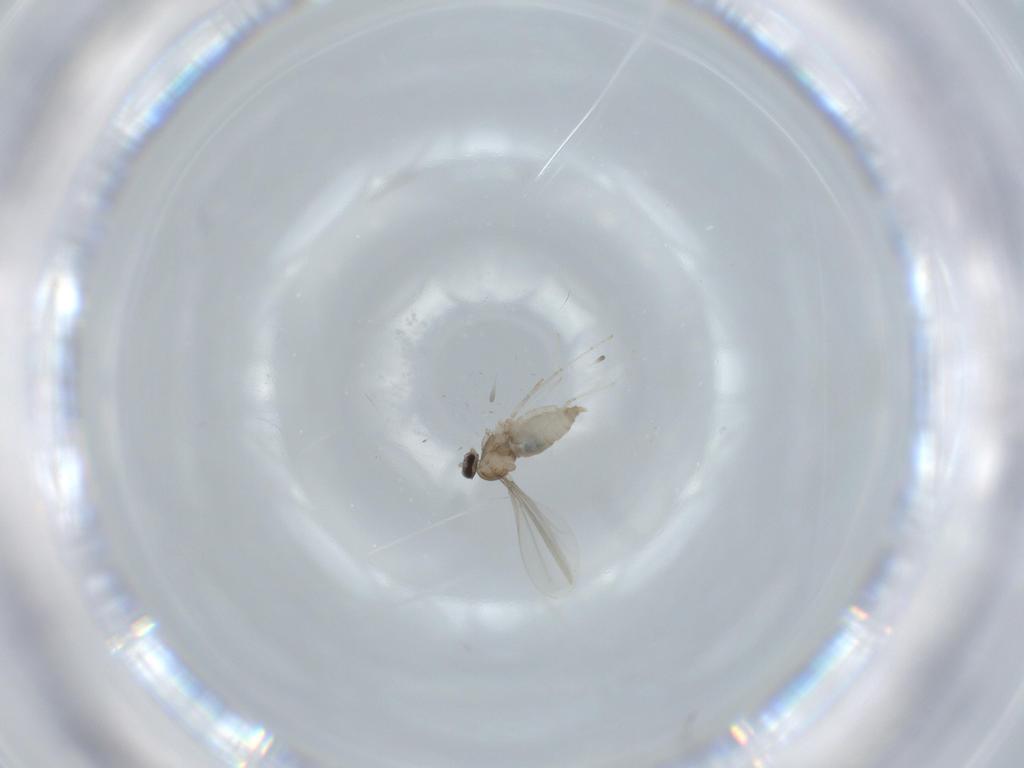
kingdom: Animalia
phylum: Arthropoda
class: Insecta
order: Diptera
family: Cecidomyiidae
